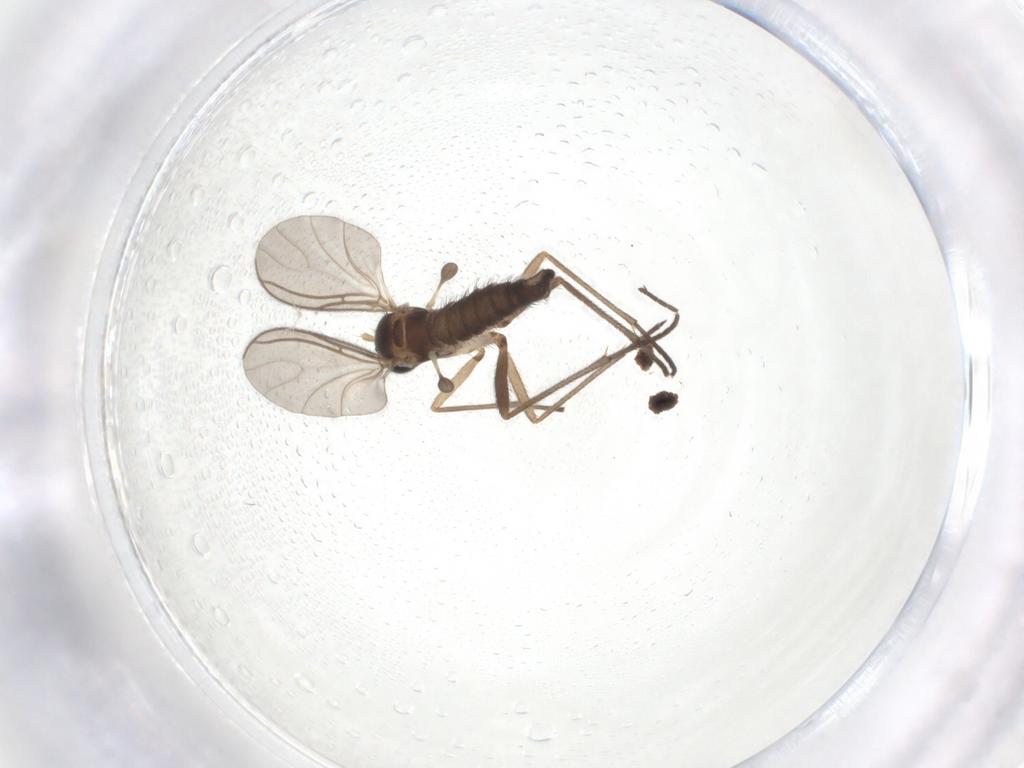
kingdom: Animalia
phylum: Arthropoda
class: Insecta
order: Diptera
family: Sciaridae
